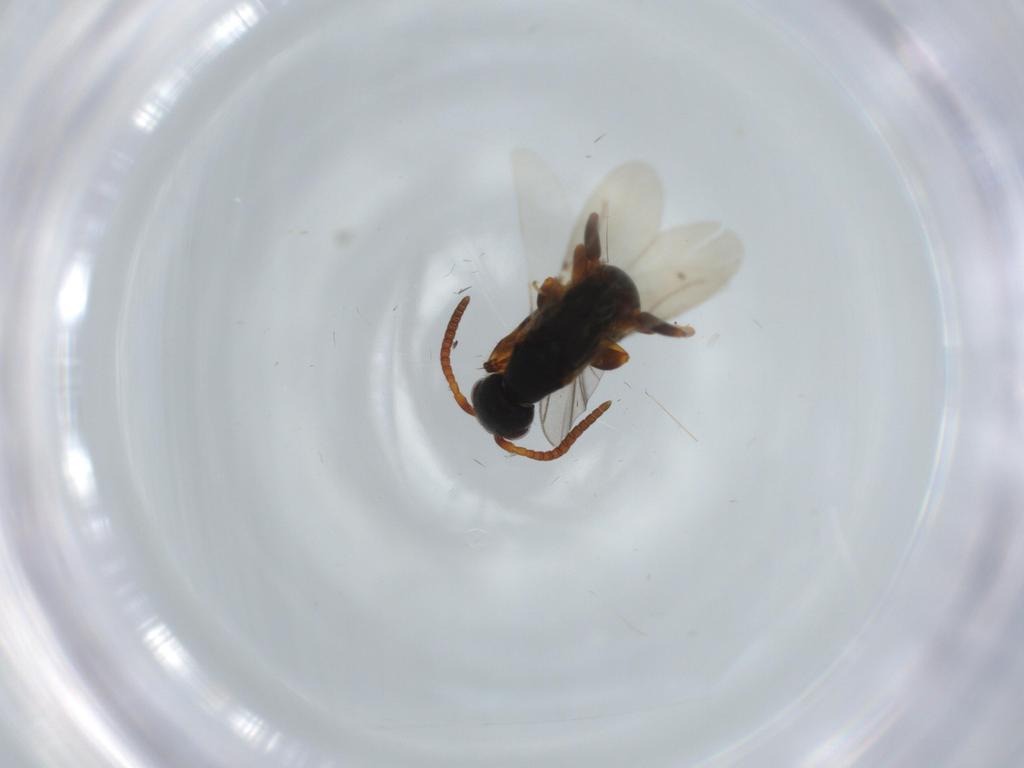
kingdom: Animalia
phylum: Arthropoda
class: Insecta
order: Hymenoptera
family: Bethylidae
